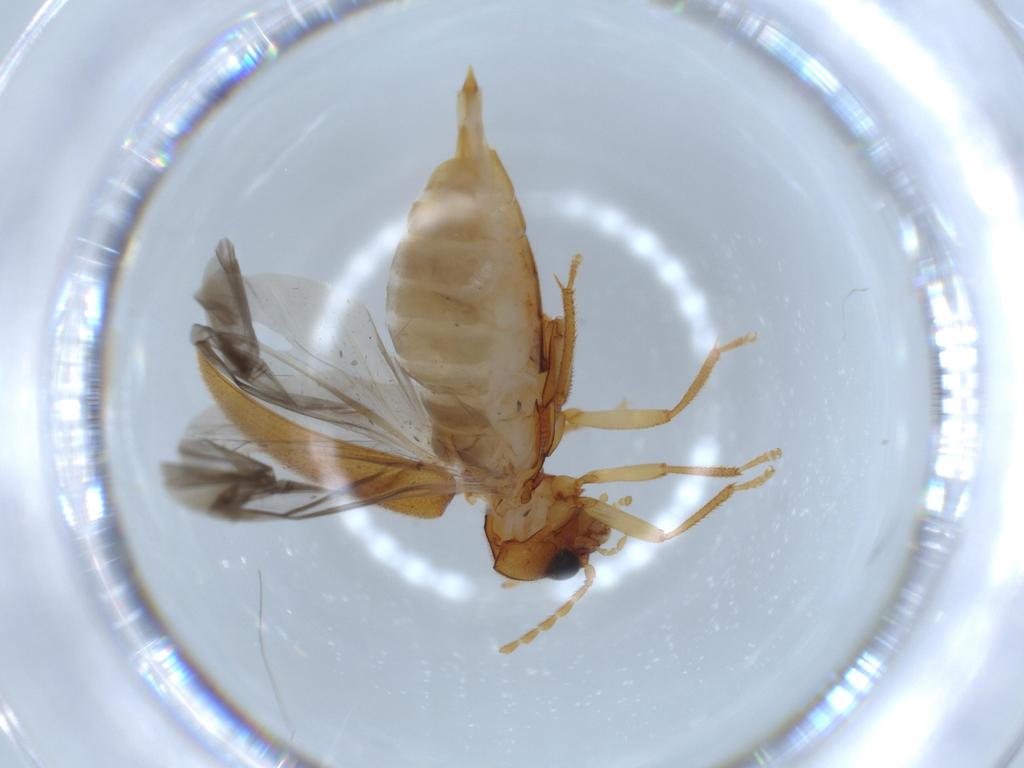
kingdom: Animalia
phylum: Arthropoda
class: Insecta
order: Coleoptera
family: Ptilodactylidae
